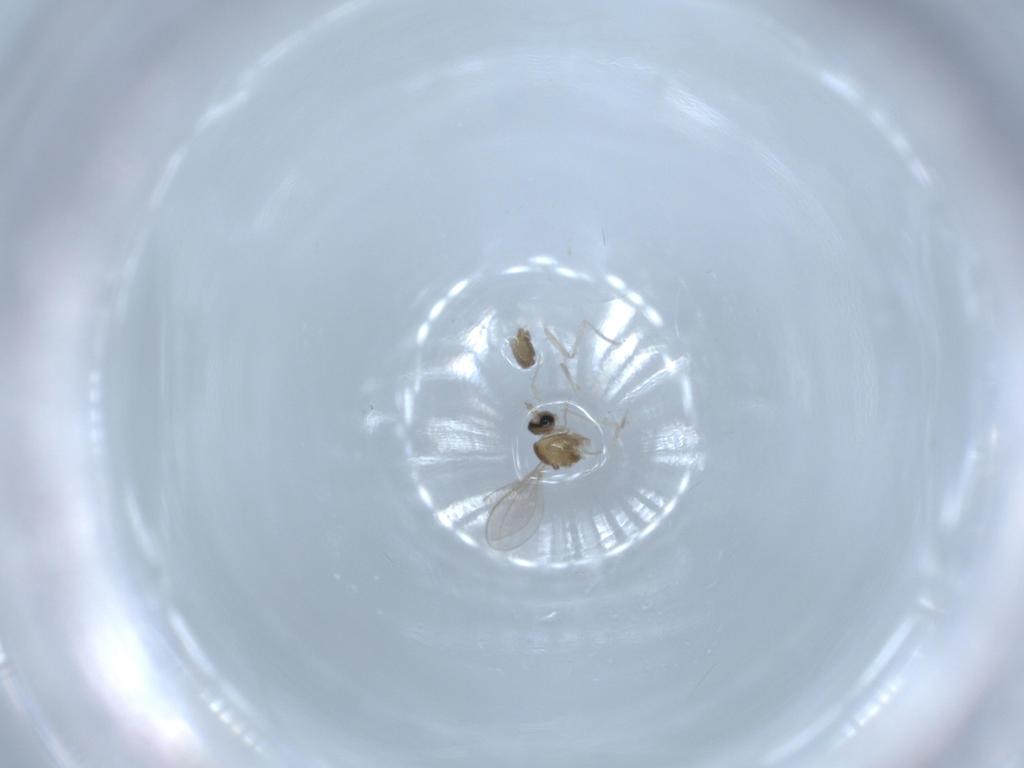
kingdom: Animalia
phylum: Arthropoda
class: Insecta
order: Diptera
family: Cecidomyiidae
